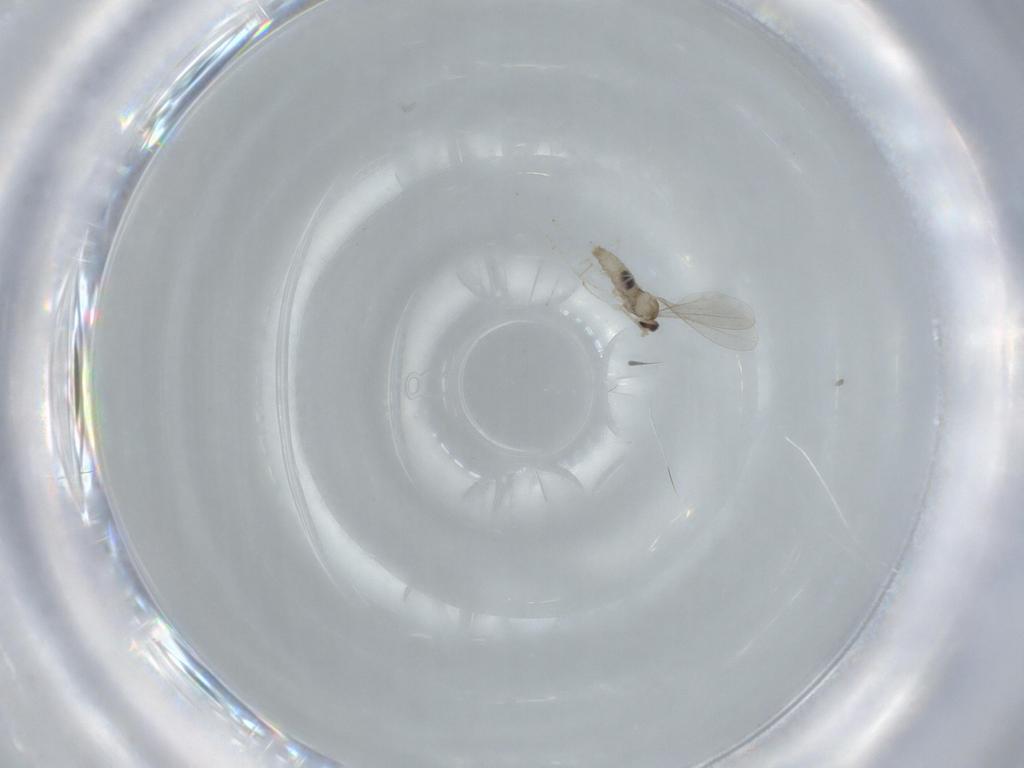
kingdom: Animalia
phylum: Arthropoda
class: Insecta
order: Diptera
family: Cecidomyiidae
